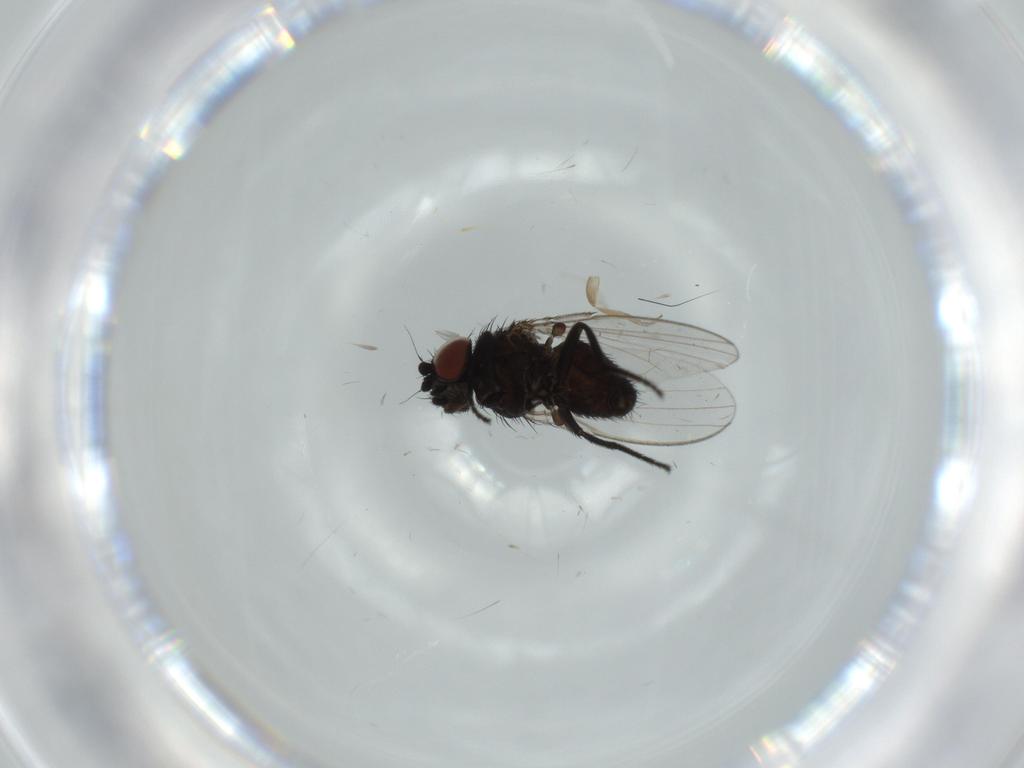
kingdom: Animalia
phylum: Arthropoda
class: Insecta
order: Diptera
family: Milichiidae
